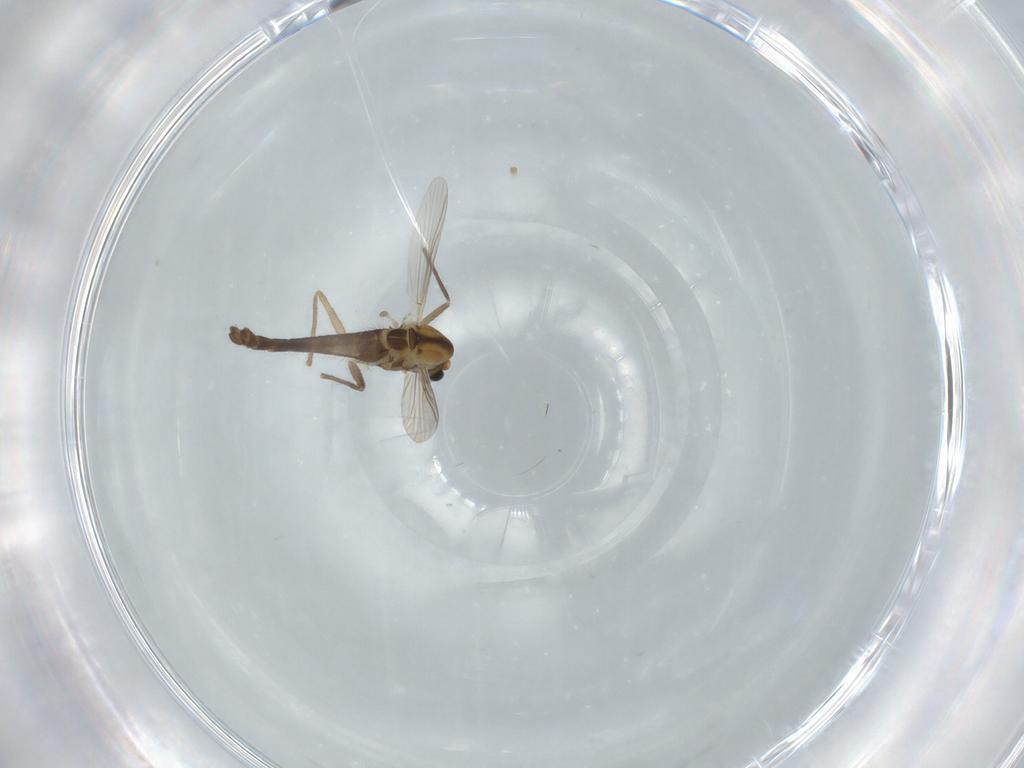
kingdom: Animalia
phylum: Arthropoda
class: Insecta
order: Diptera
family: Chironomidae
